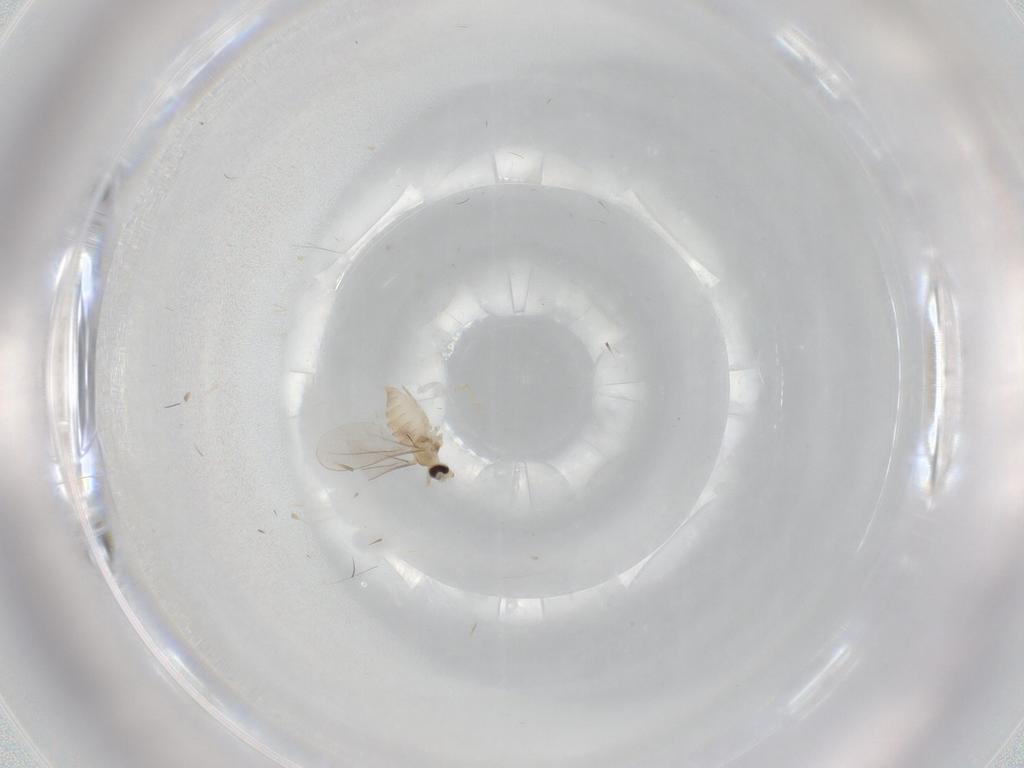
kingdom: Animalia
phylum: Arthropoda
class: Insecta
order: Diptera
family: Cecidomyiidae
